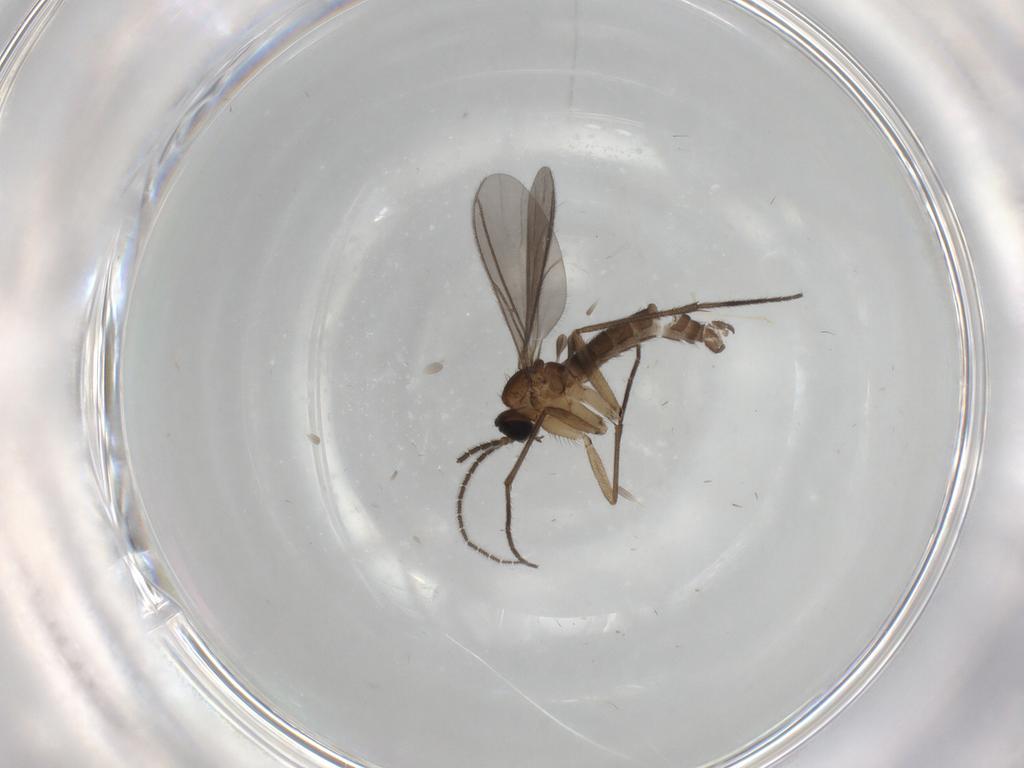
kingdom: Animalia
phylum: Arthropoda
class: Insecta
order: Diptera
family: Sciaridae
